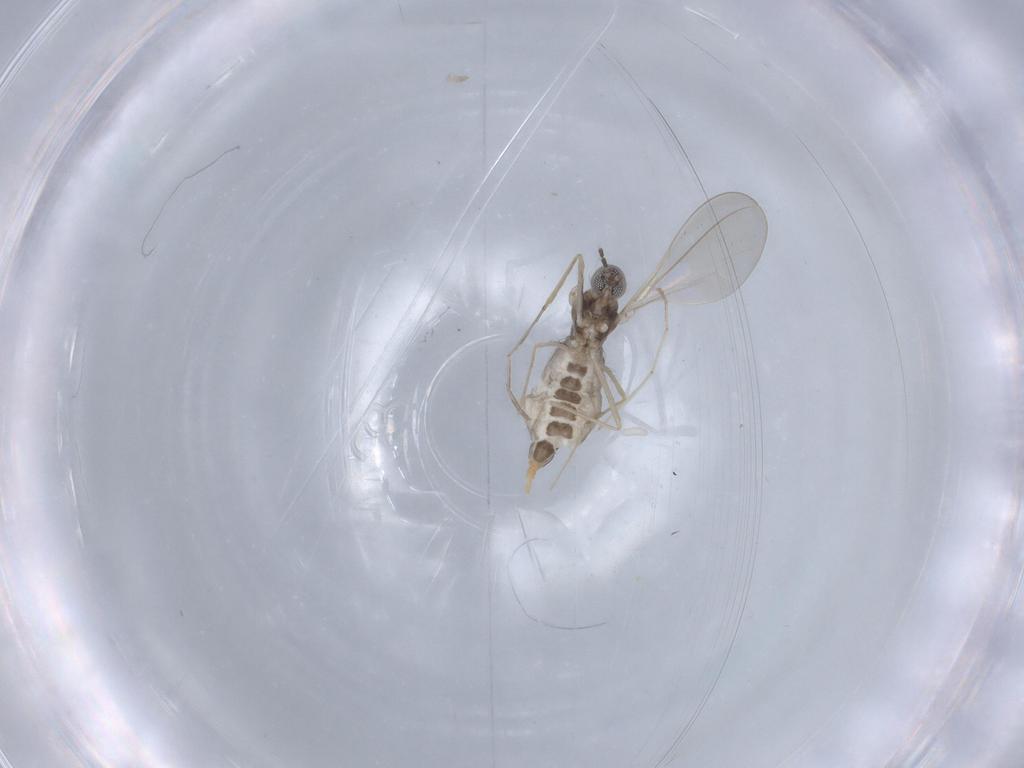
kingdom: Animalia
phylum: Arthropoda
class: Insecta
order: Diptera
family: Cecidomyiidae
